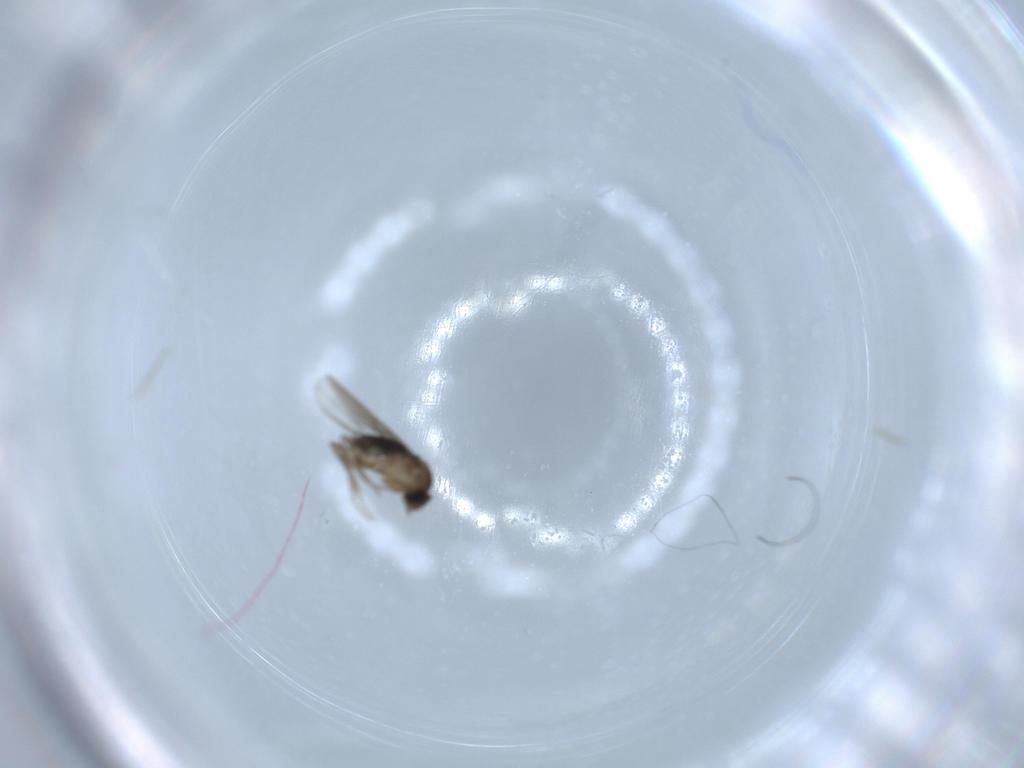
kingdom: Animalia
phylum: Arthropoda
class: Insecta
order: Diptera
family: Phoridae
